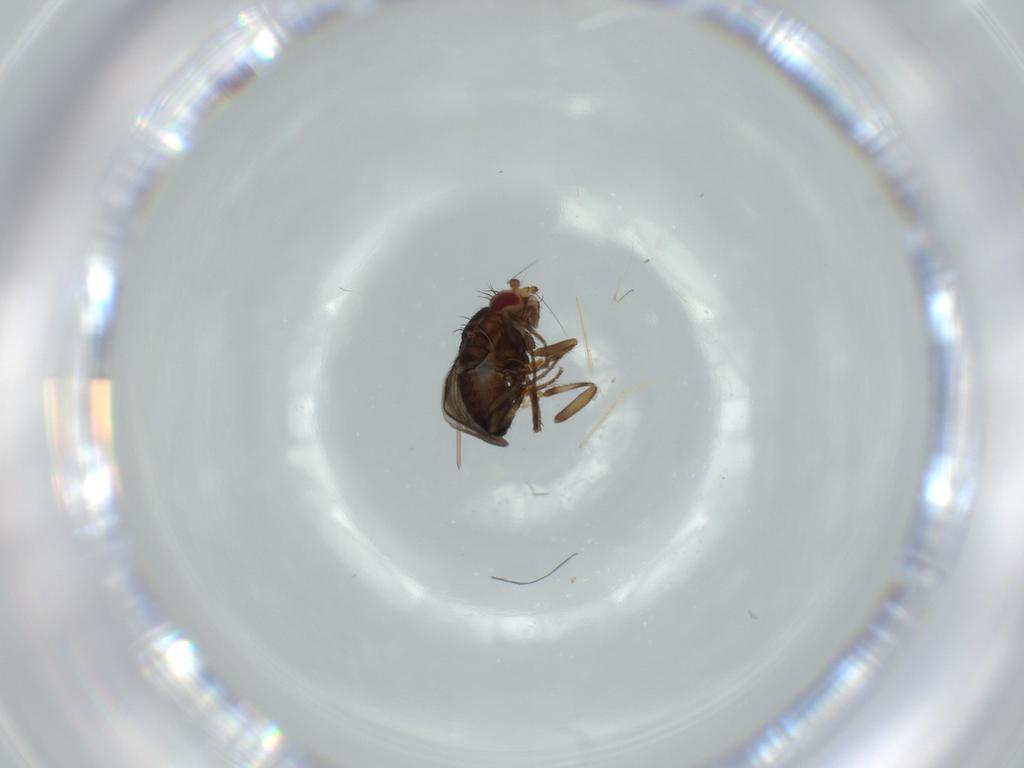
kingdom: Animalia
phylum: Arthropoda
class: Insecta
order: Diptera
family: Chironomidae
